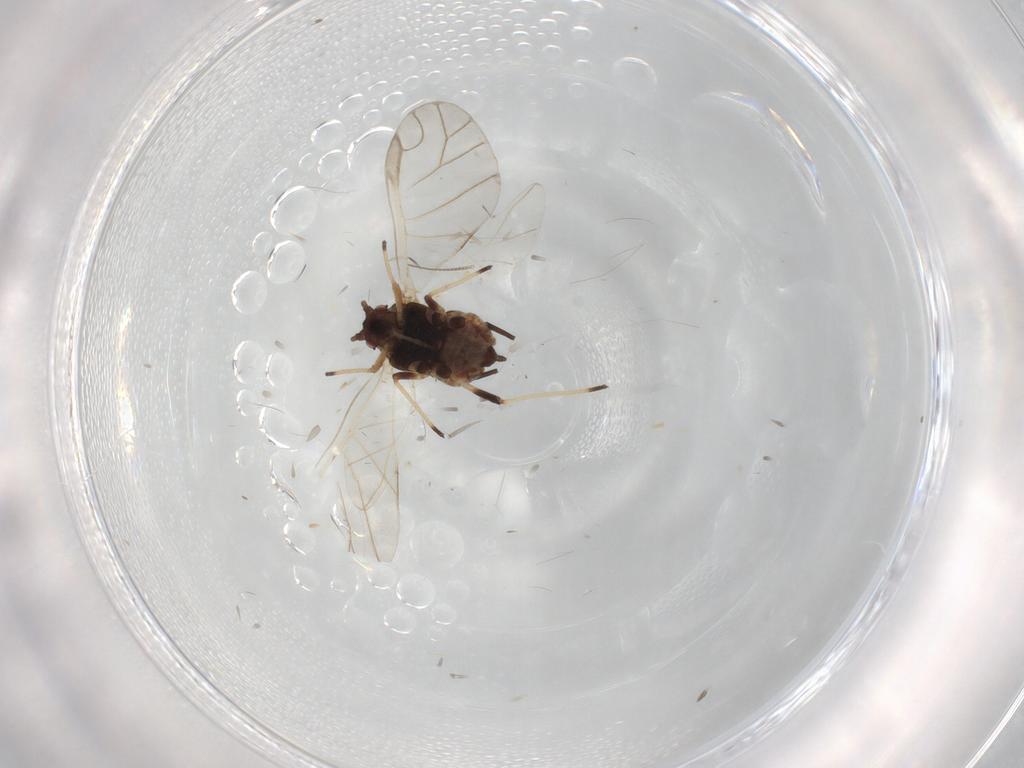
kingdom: Animalia
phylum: Arthropoda
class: Insecta
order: Hemiptera
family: Aphididae
